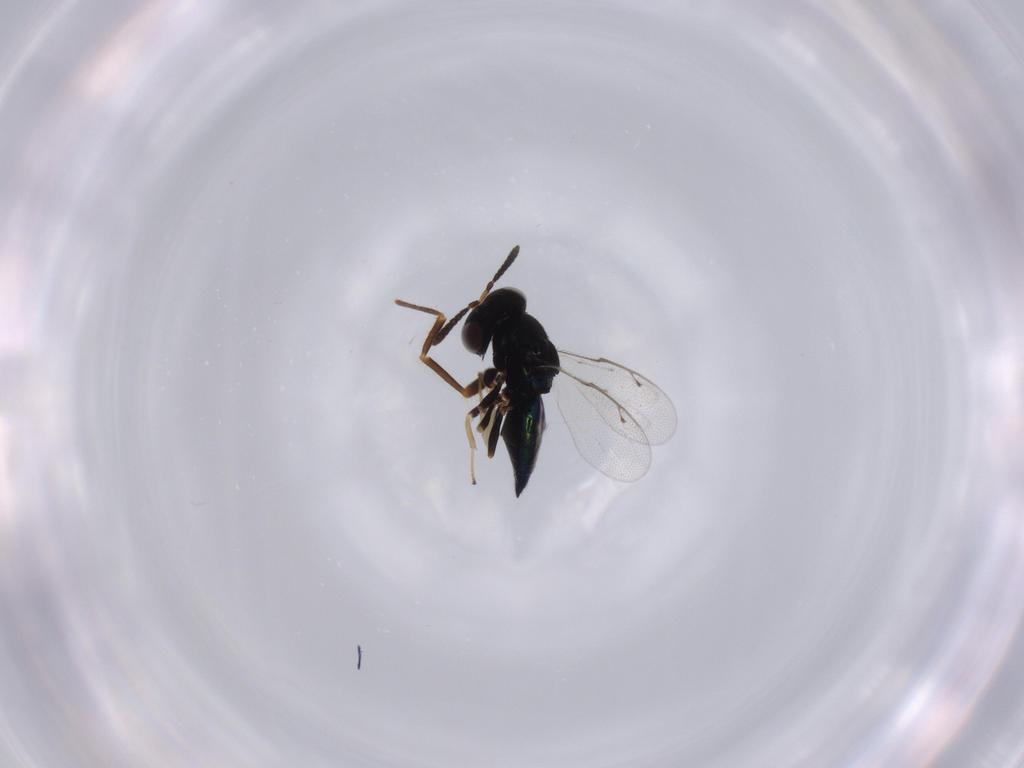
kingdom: Animalia
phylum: Arthropoda
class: Insecta
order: Hymenoptera
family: Pteromalidae
